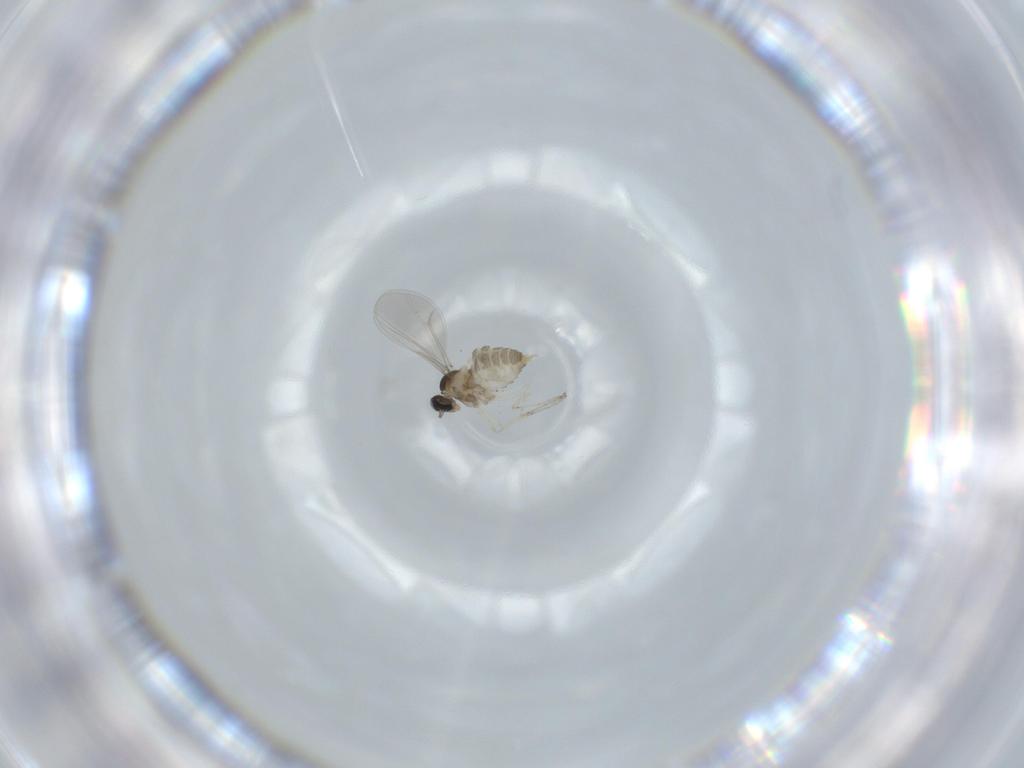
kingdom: Animalia
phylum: Arthropoda
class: Insecta
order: Diptera
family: Cecidomyiidae
